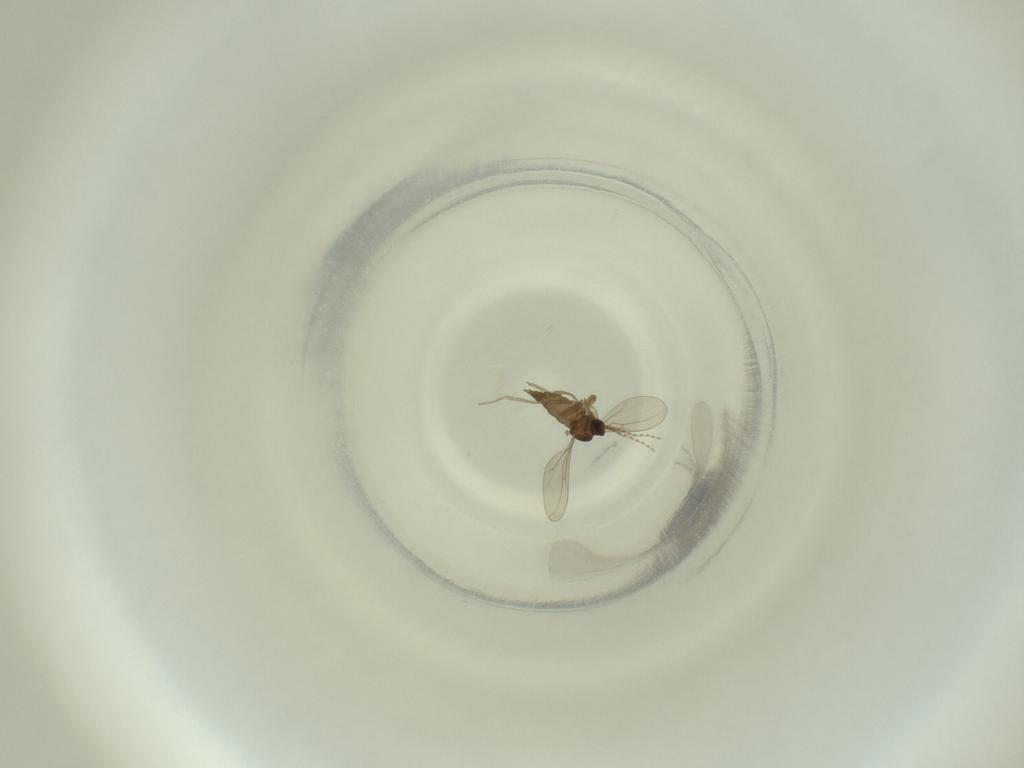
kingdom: Animalia
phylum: Arthropoda
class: Insecta
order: Diptera
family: Cecidomyiidae
